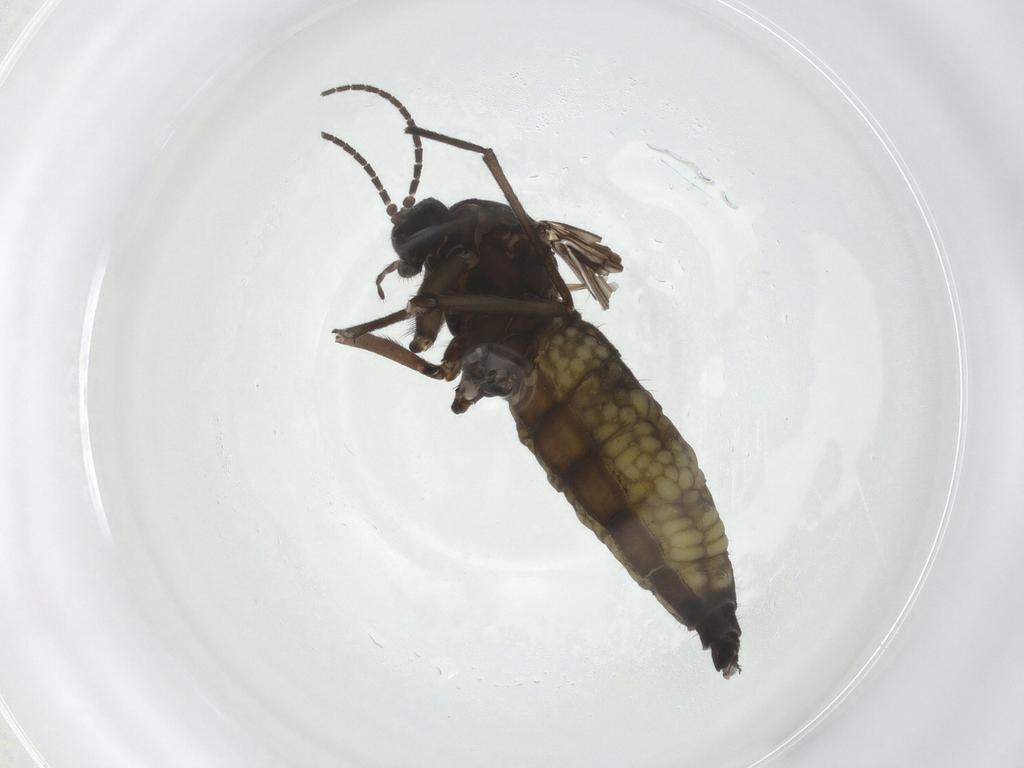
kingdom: Animalia
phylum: Arthropoda
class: Insecta
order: Diptera
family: Sciaridae
